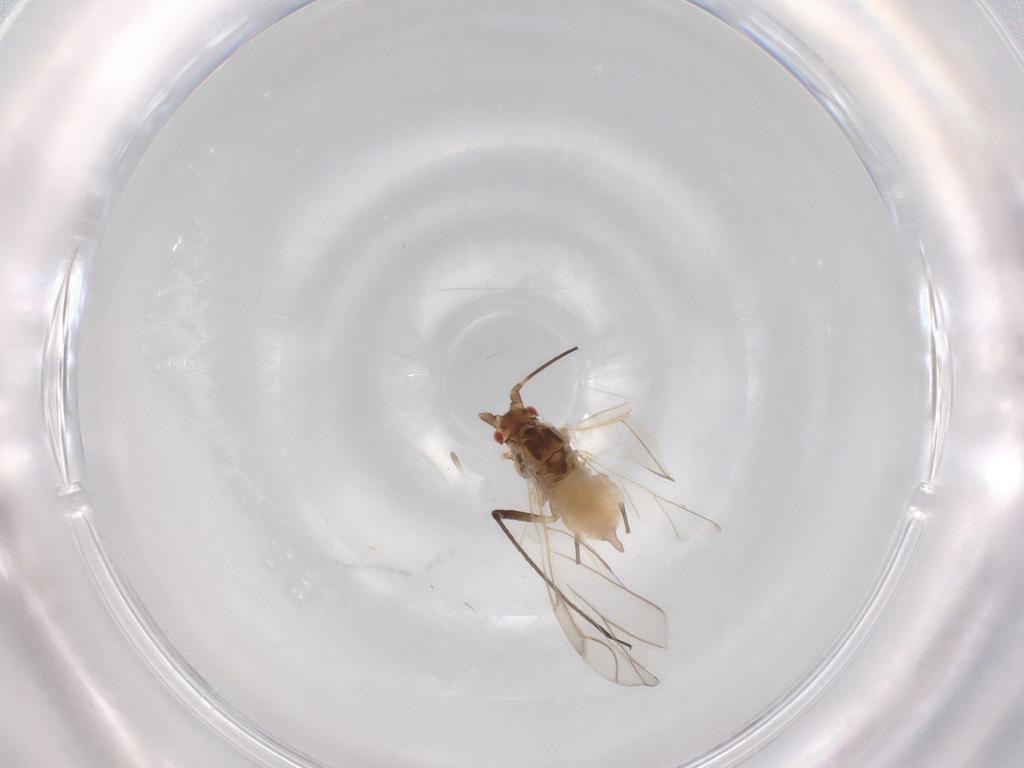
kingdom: Animalia
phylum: Arthropoda
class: Insecta
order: Hemiptera
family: Aphididae
